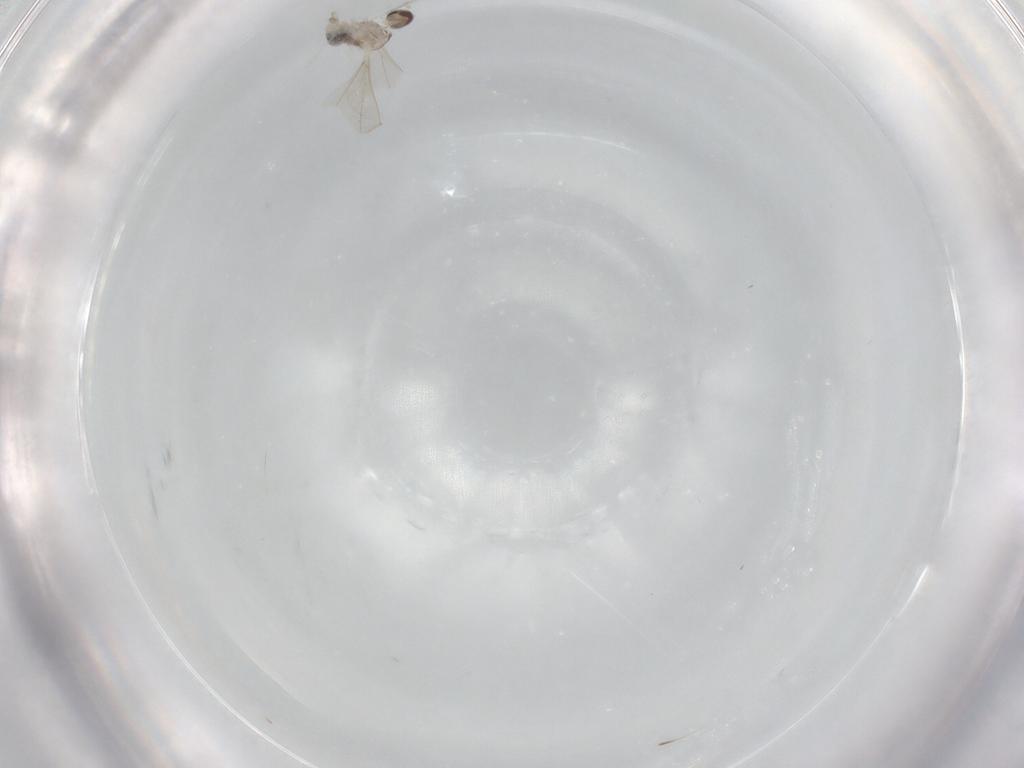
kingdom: Animalia
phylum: Arthropoda
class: Insecta
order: Diptera
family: Cecidomyiidae
